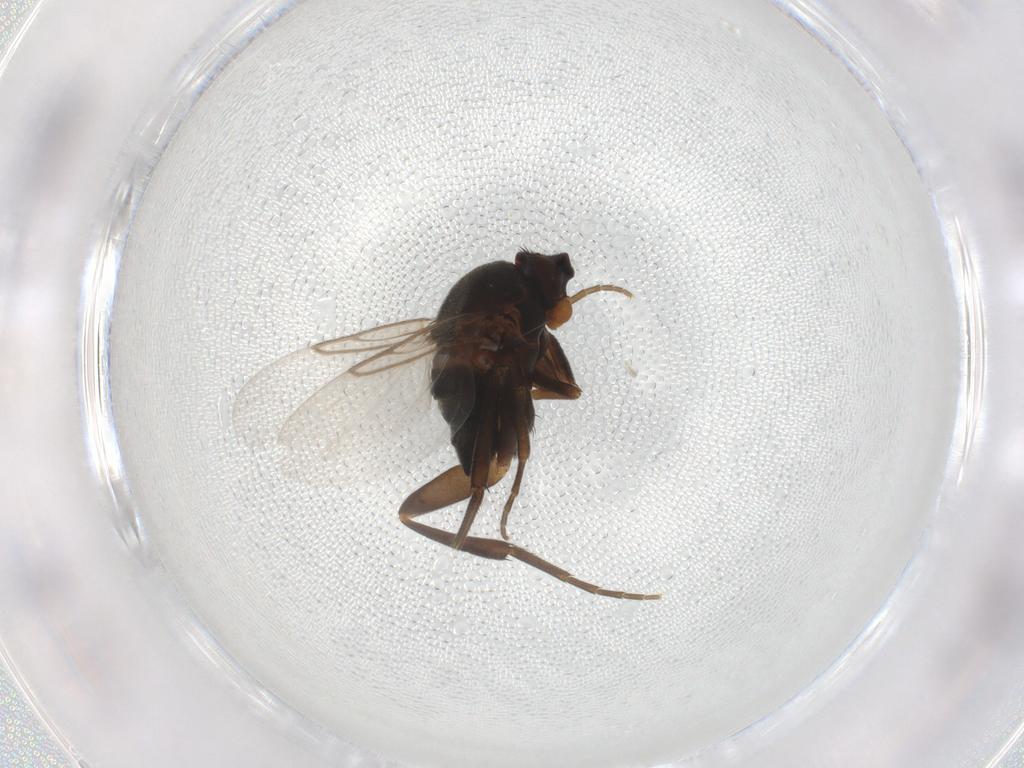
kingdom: Animalia
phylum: Arthropoda
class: Insecta
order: Diptera
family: Phoridae
